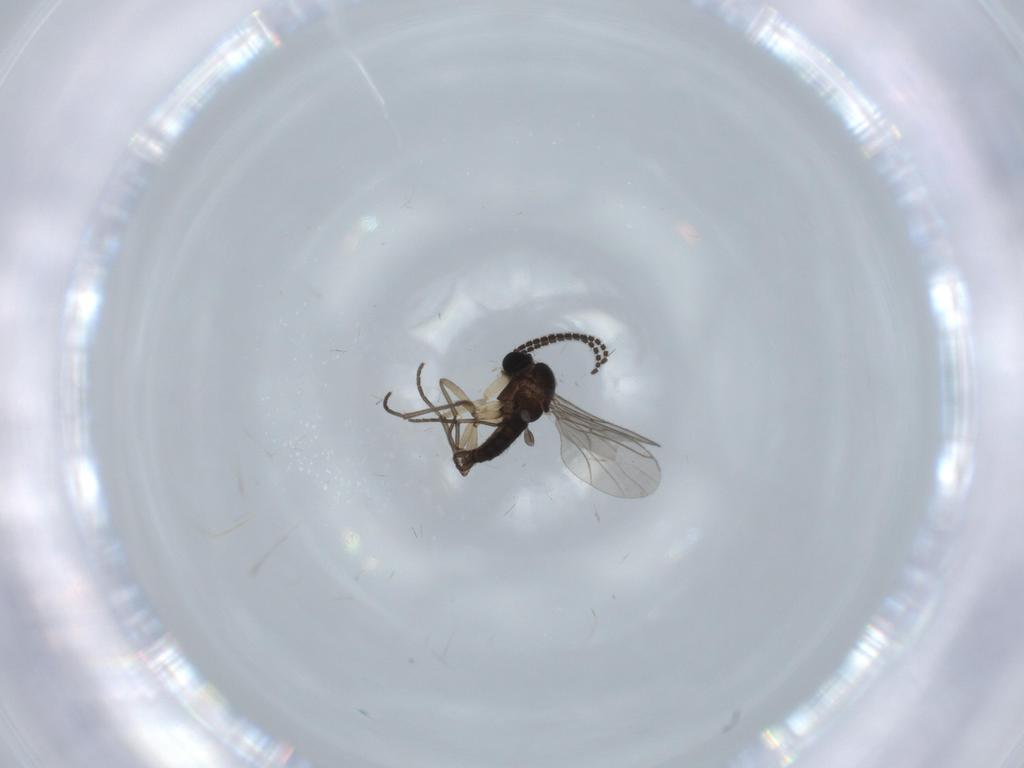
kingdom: Animalia
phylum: Arthropoda
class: Insecta
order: Diptera
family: Sciaridae
